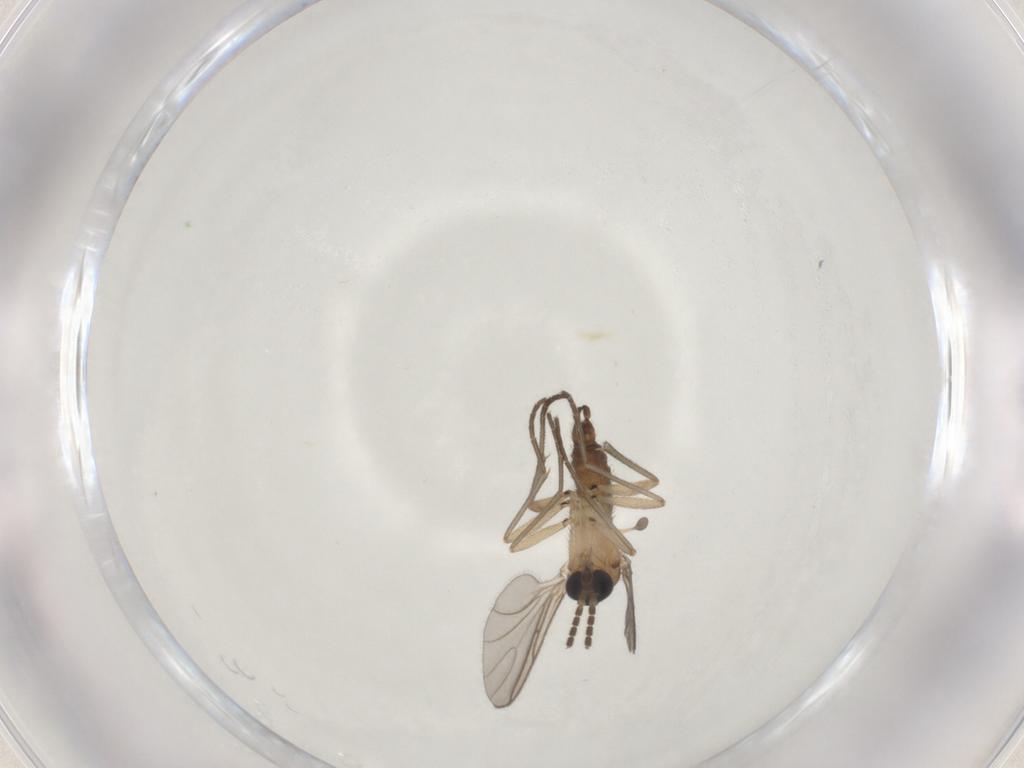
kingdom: Animalia
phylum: Arthropoda
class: Insecta
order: Diptera
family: Sciaridae
